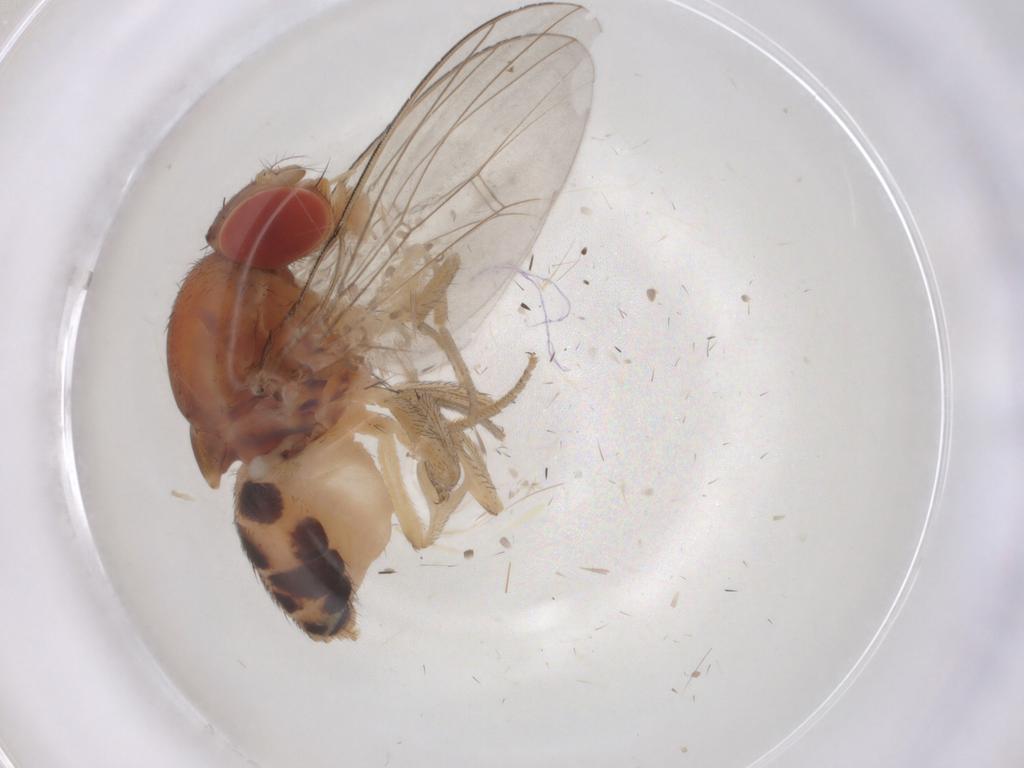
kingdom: Animalia
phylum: Arthropoda
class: Insecta
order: Diptera
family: Drosophilidae
